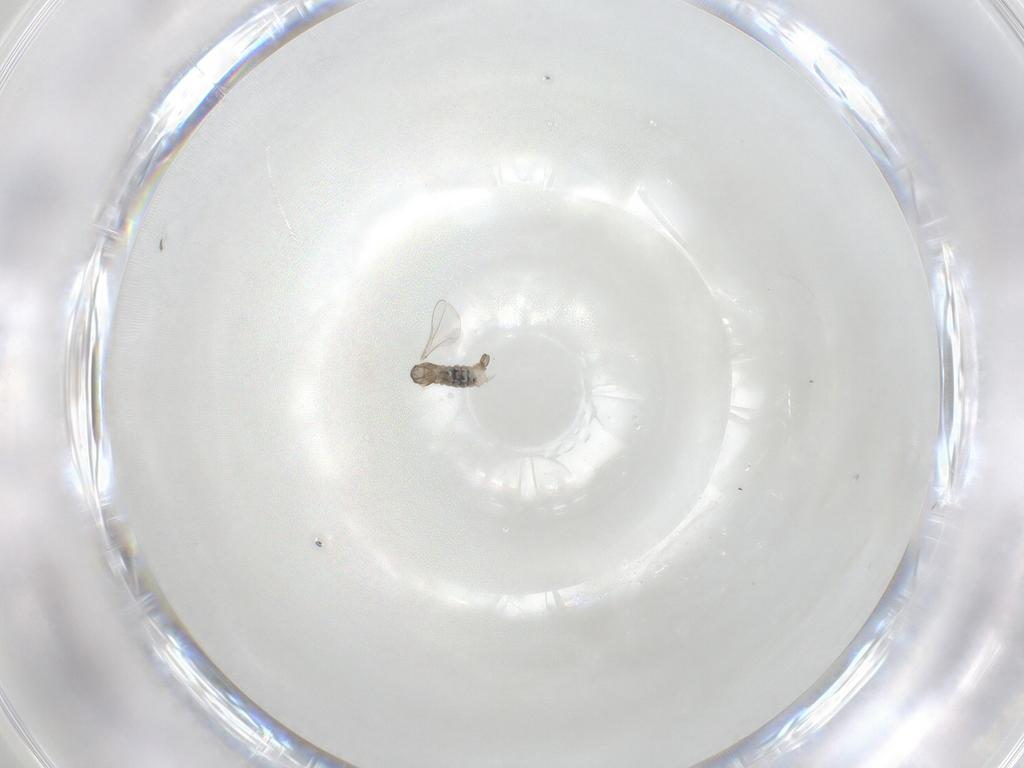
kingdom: Animalia
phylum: Arthropoda
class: Insecta
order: Diptera
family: Cecidomyiidae
